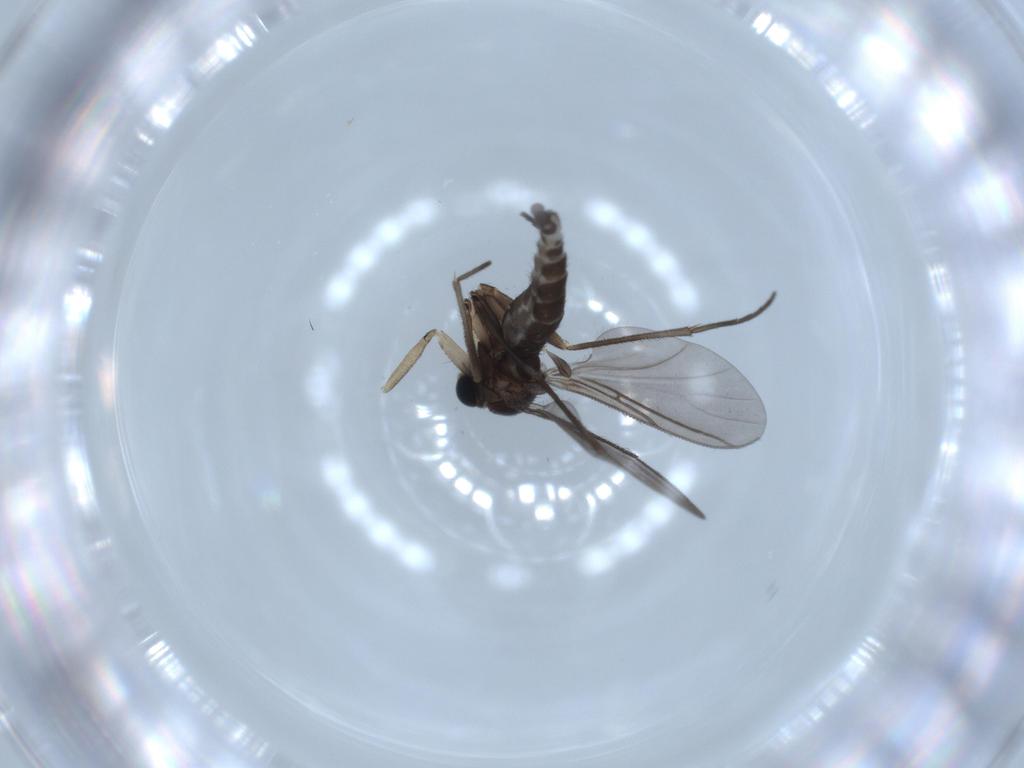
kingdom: Animalia
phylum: Arthropoda
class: Insecta
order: Diptera
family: Sciaridae
